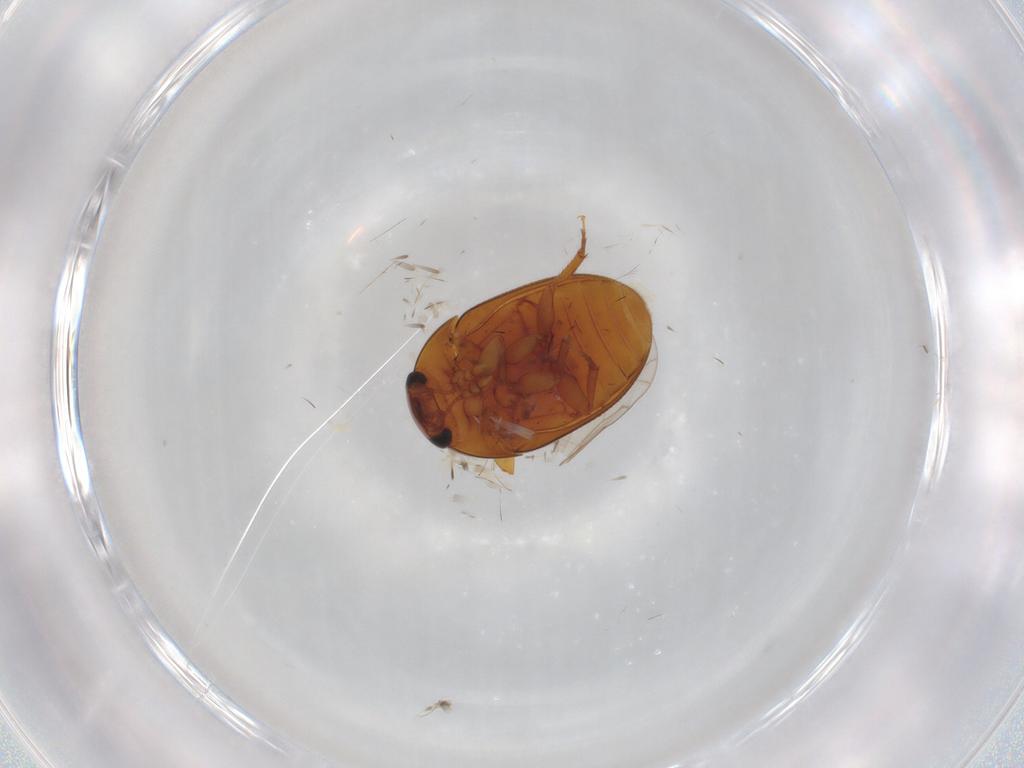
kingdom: Animalia
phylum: Arthropoda
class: Insecta
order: Coleoptera
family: Phalacridae
